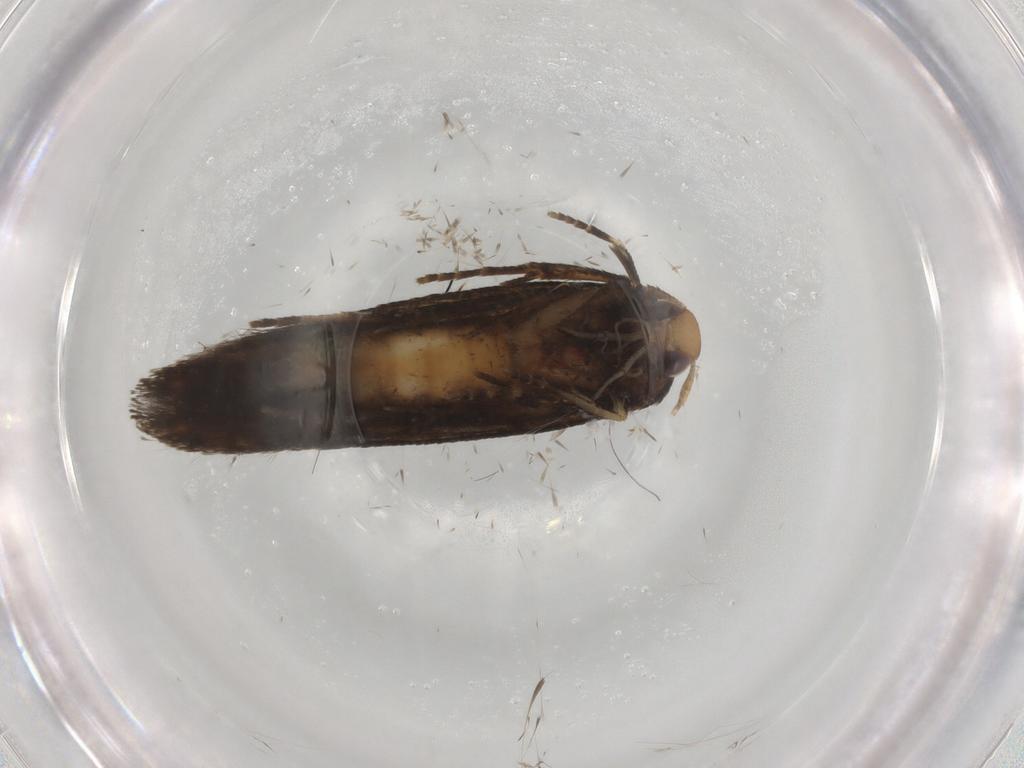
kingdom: Animalia
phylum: Arthropoda
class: Insecta
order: Lepidoptera
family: Cosmopterigidae
